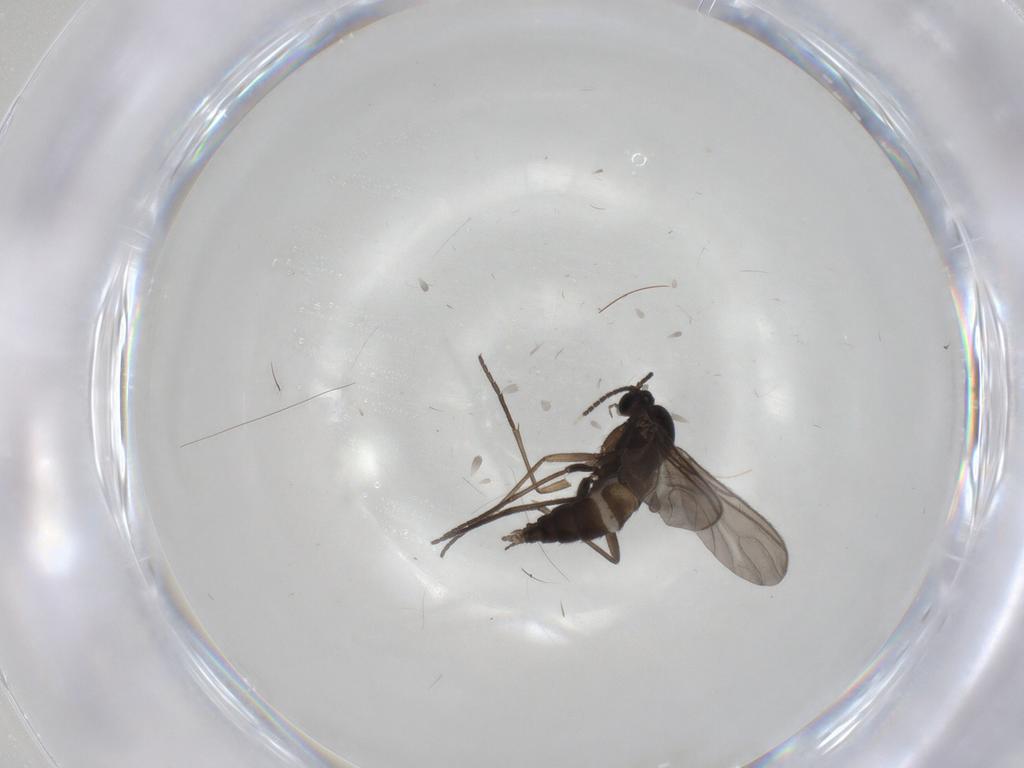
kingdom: Animalia
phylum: Arthropoda
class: Insecta
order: Diptera
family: Sciaridae
